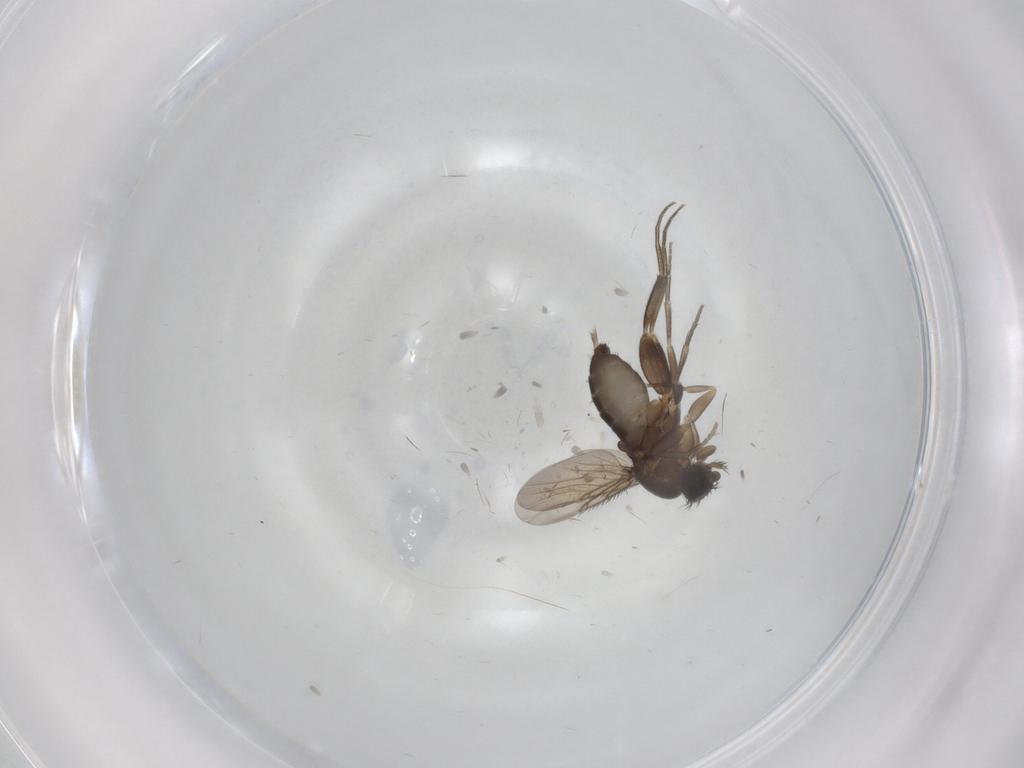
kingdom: Animalia
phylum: Arthropoda
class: Insecta
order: Diptera
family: Phoridae
